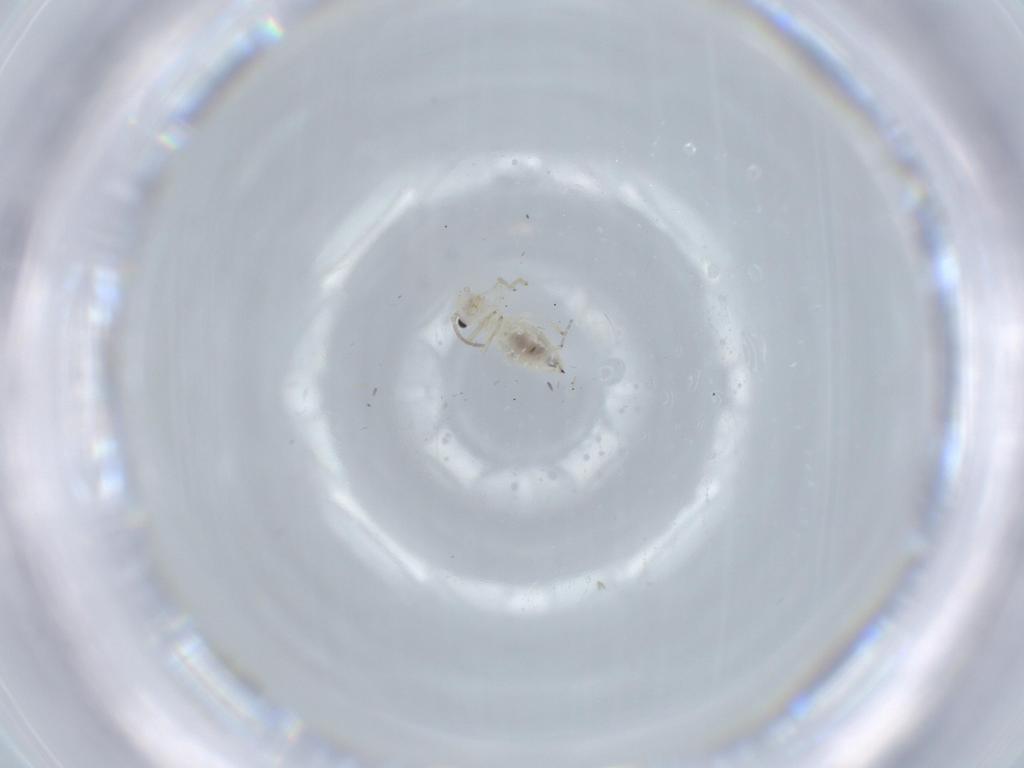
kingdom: Animalia
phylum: Arthropoda
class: Insecta
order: Psocodea
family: Caeciliusidae
